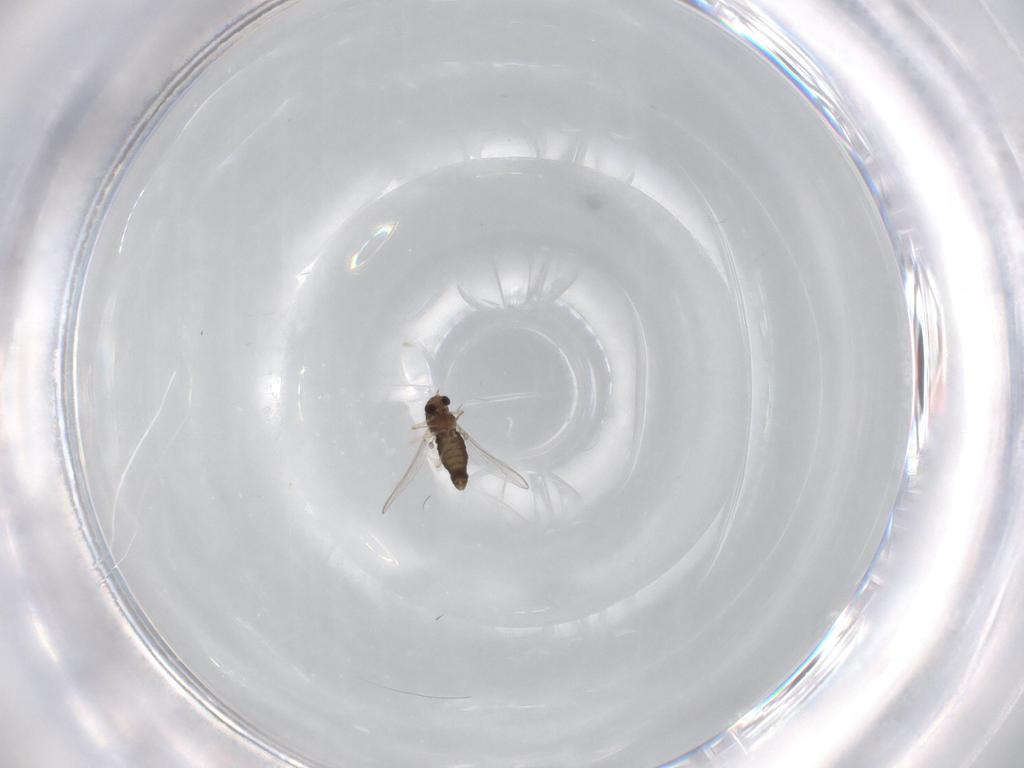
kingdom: Animalia
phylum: Arthropoda
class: Insecta
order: Diptera
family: Chironomidae
